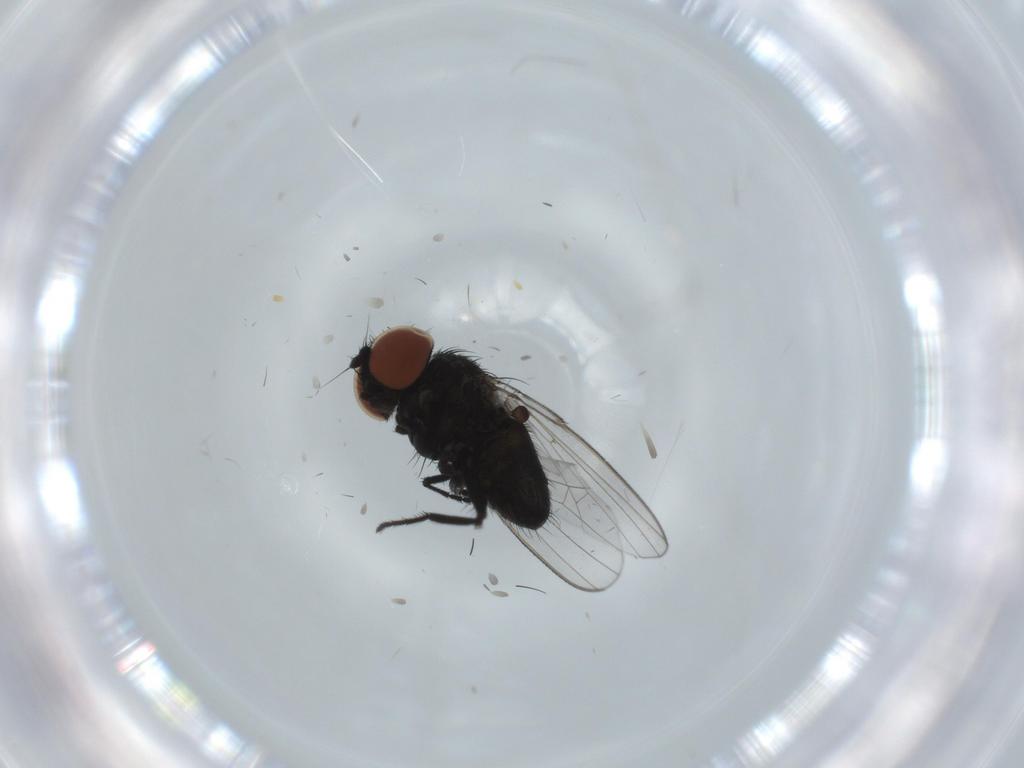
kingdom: Animalia
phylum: Arthropoda
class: Insecta
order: Diptera
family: Milichiidae
